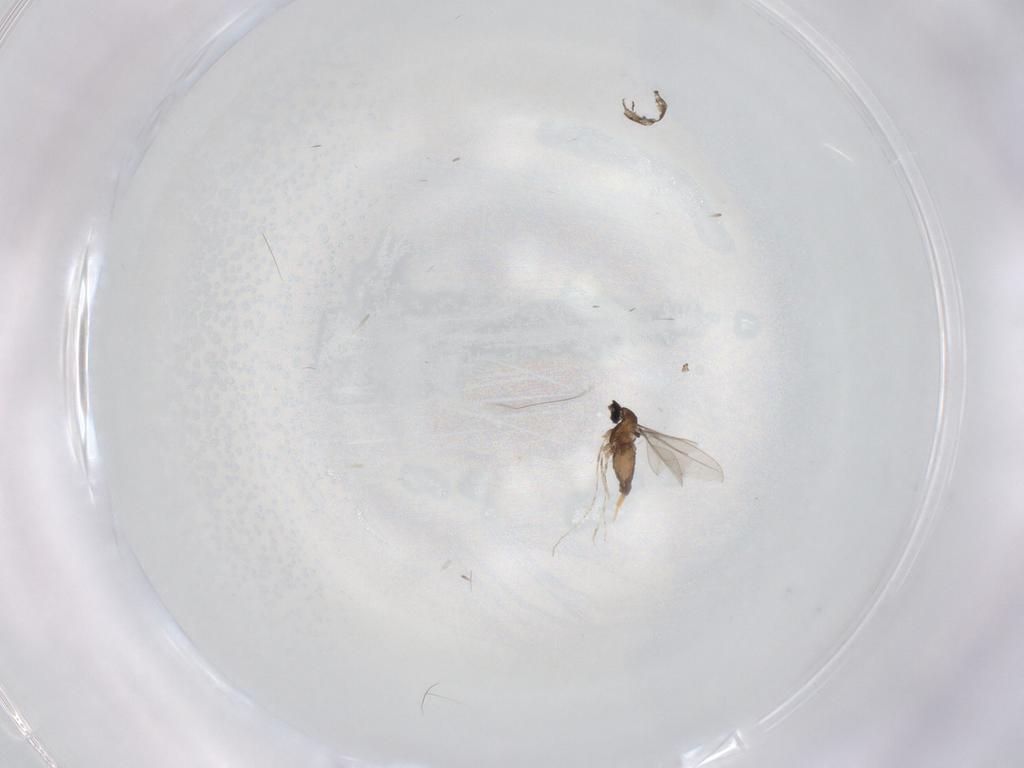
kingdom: Animalia
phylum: Arthropoda
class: Insecta
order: Diptera
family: Cecidomyiidae
